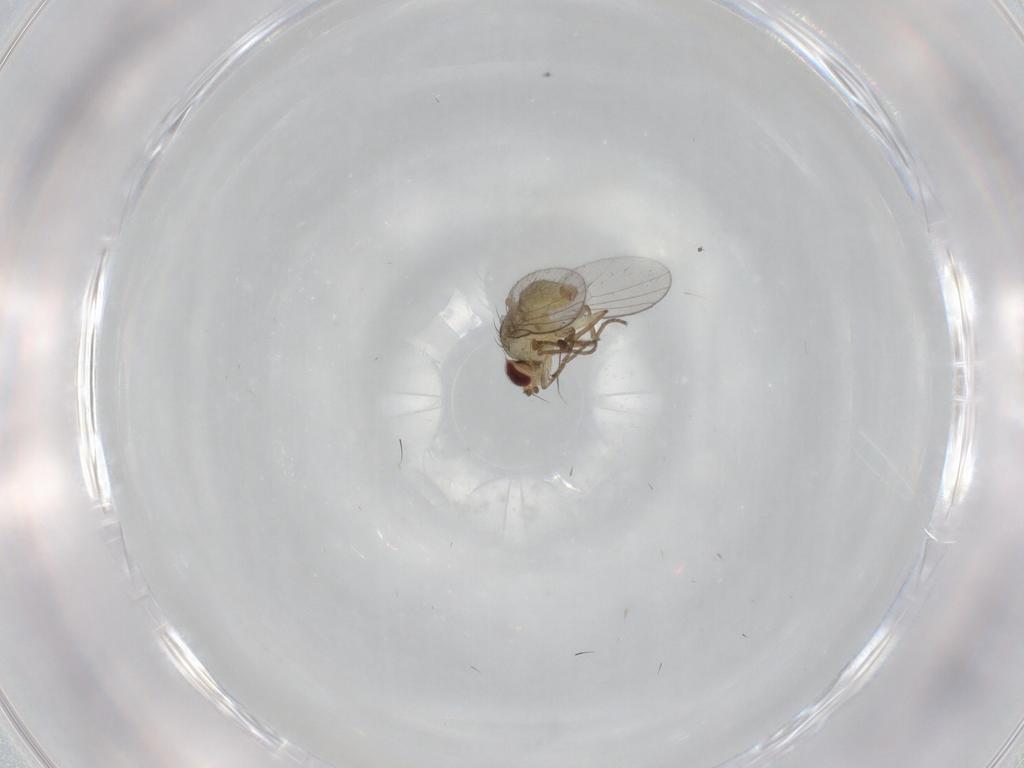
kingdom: Animalia
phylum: Arthropoda
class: Insecta
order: Diptera
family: Agromyzidae
